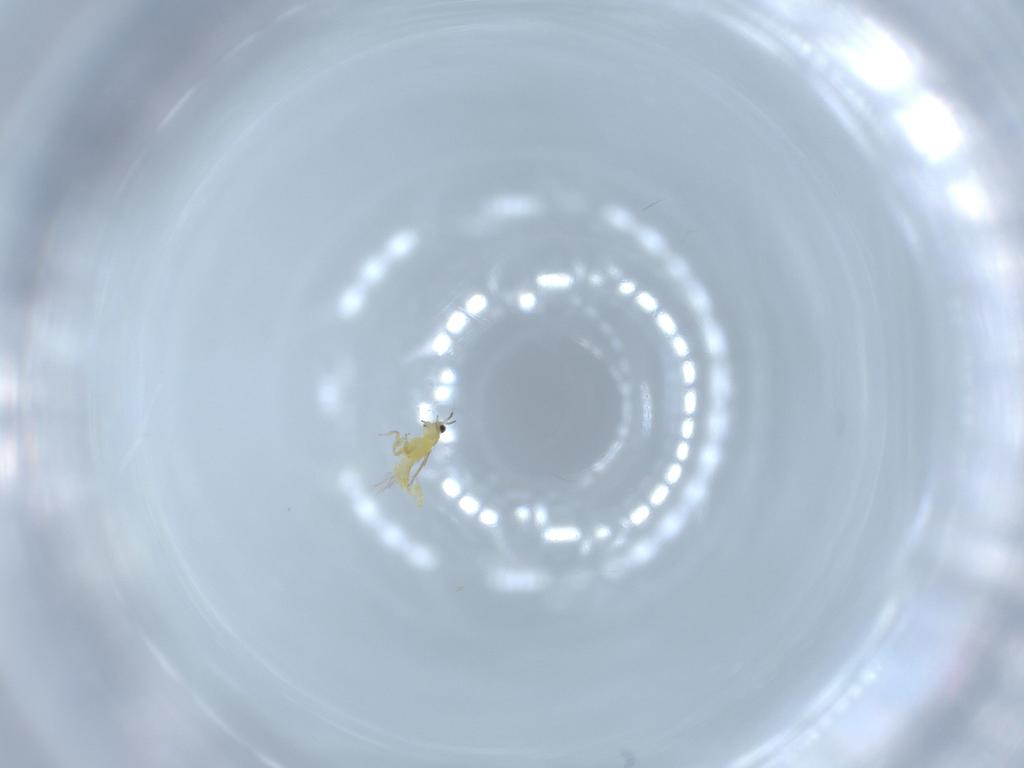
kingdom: Animalia
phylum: Arthropoda
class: Insecta
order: Thysanoptera
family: Thripidae
